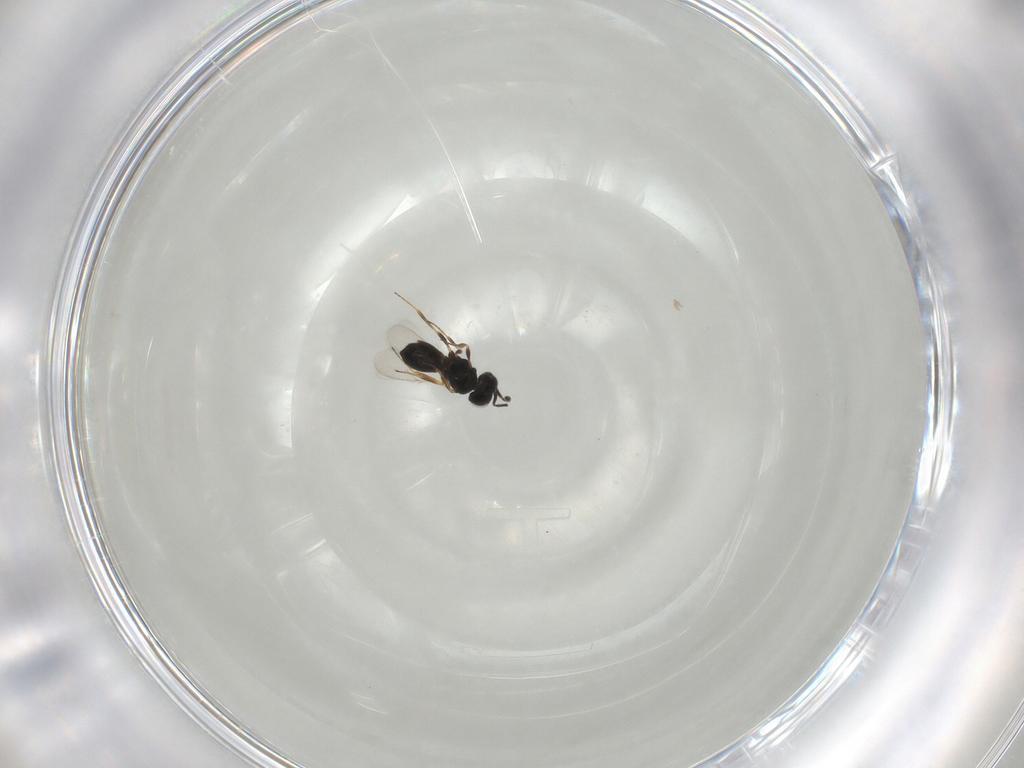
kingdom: Animalia
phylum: Arthropoda
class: Insecta
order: Hymenoptera
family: Scelionidae
